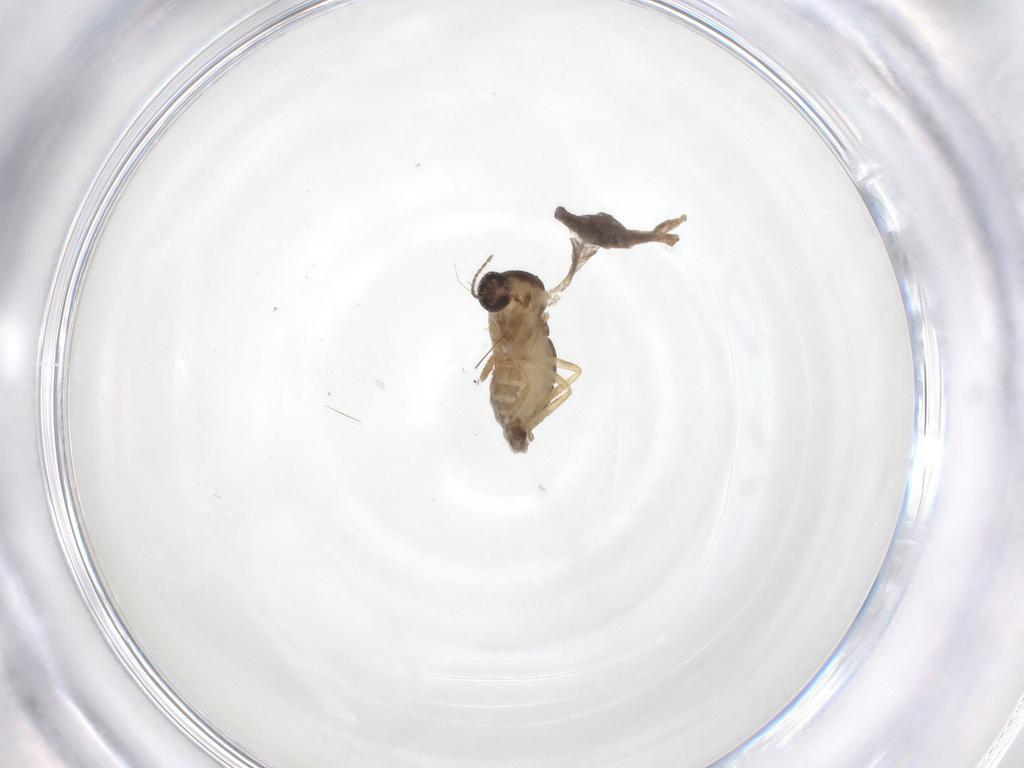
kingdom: Animalia
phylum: Arthropoda
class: Insecta
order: Diptera
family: Ceratopogonidae
